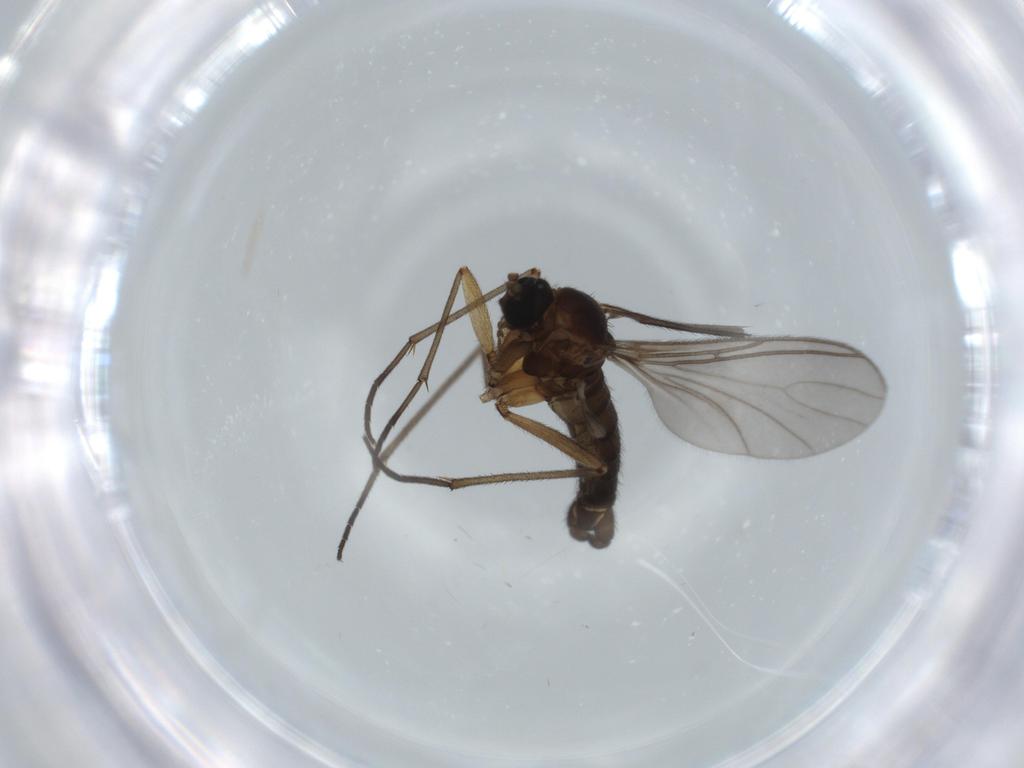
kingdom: Animalia
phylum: Arthropoda
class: Insecta
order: Diptera
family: Sciaridae
